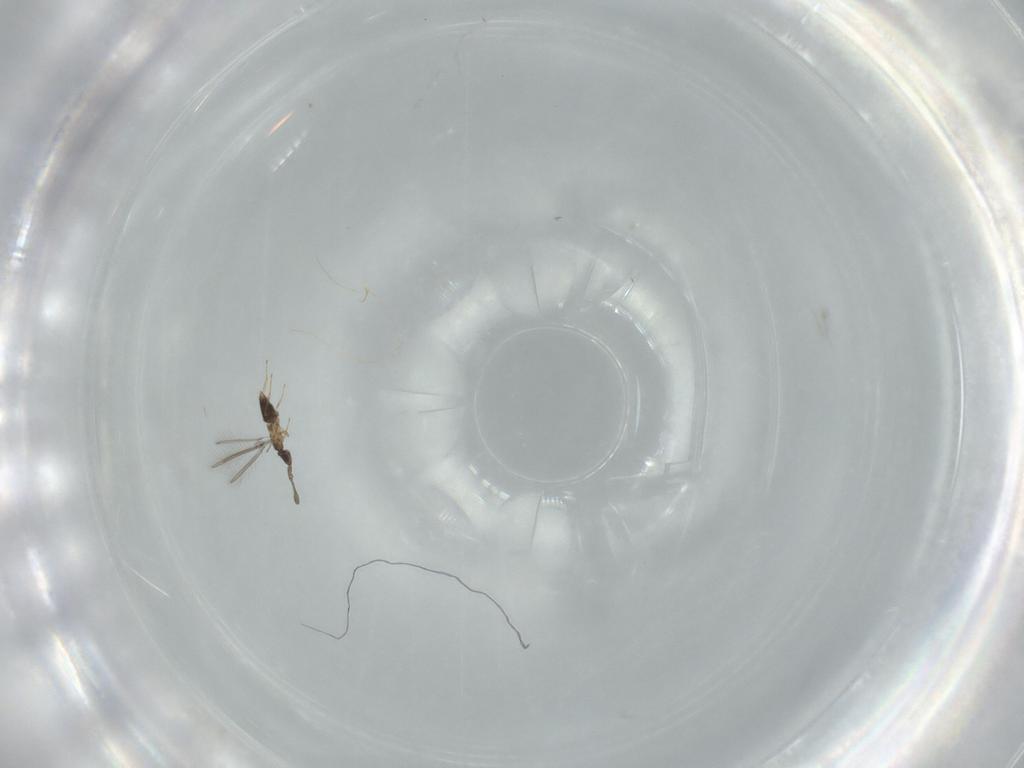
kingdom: Animalia
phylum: Arthropoda
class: Insecta
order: Hymenoptera
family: Mymaridae
